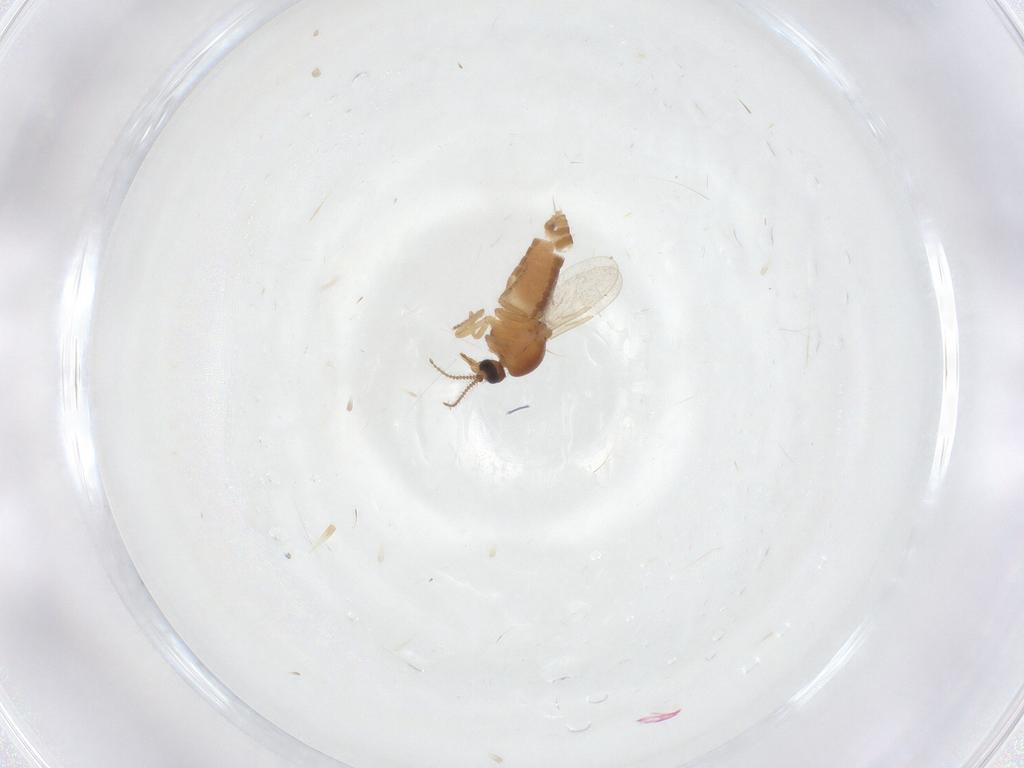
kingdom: Animalia
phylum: Arthropoda
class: Insecta
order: Diptera
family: Ceratopogonidae
